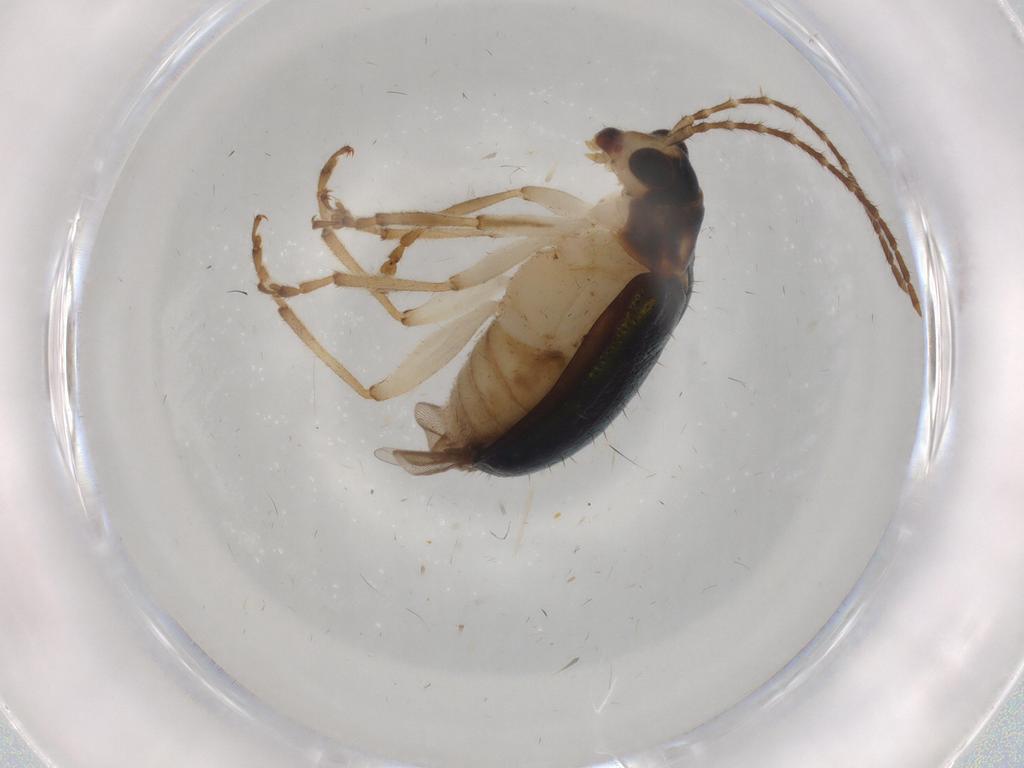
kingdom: Animalia
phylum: Arthropoda
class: Insecta
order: Coleoptera
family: Chrysomelidae
